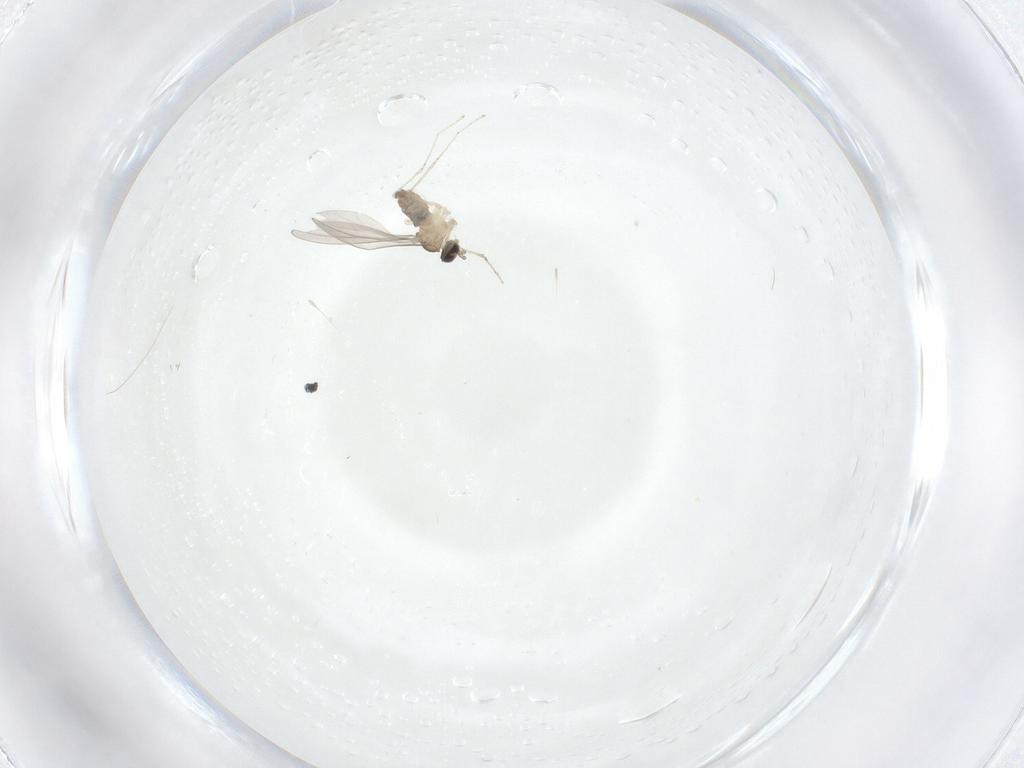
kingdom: Animalia
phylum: Arthropoda
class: Insecta
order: Diptera
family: Cecidomyiidae
